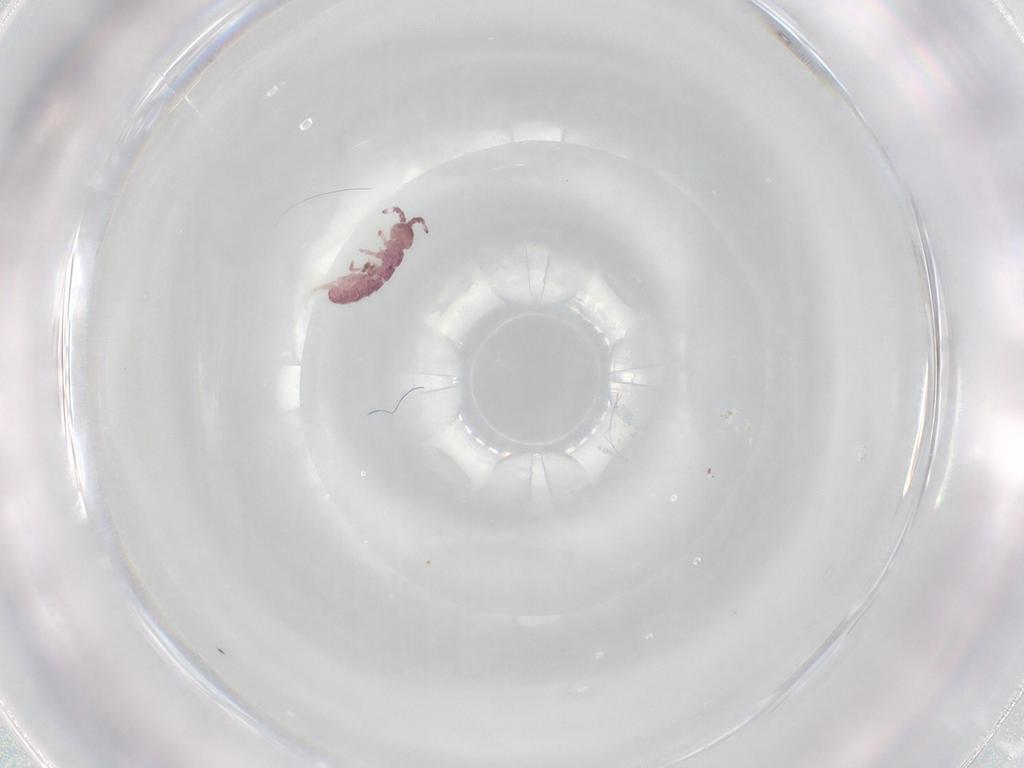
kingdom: Animalia
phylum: Arthropoda
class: Collembola
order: Entomobryomorpha
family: Isotomidae
